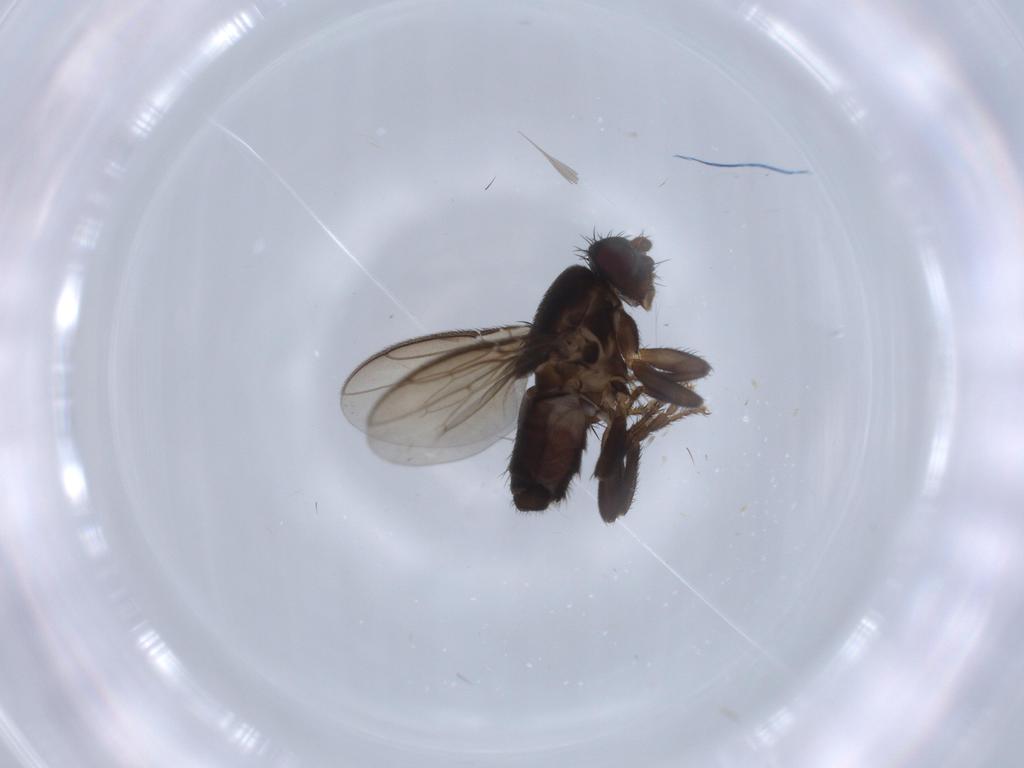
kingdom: Animalia
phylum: Arthropoda
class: Insecta
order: Diptera
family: Sphaeroceridae
